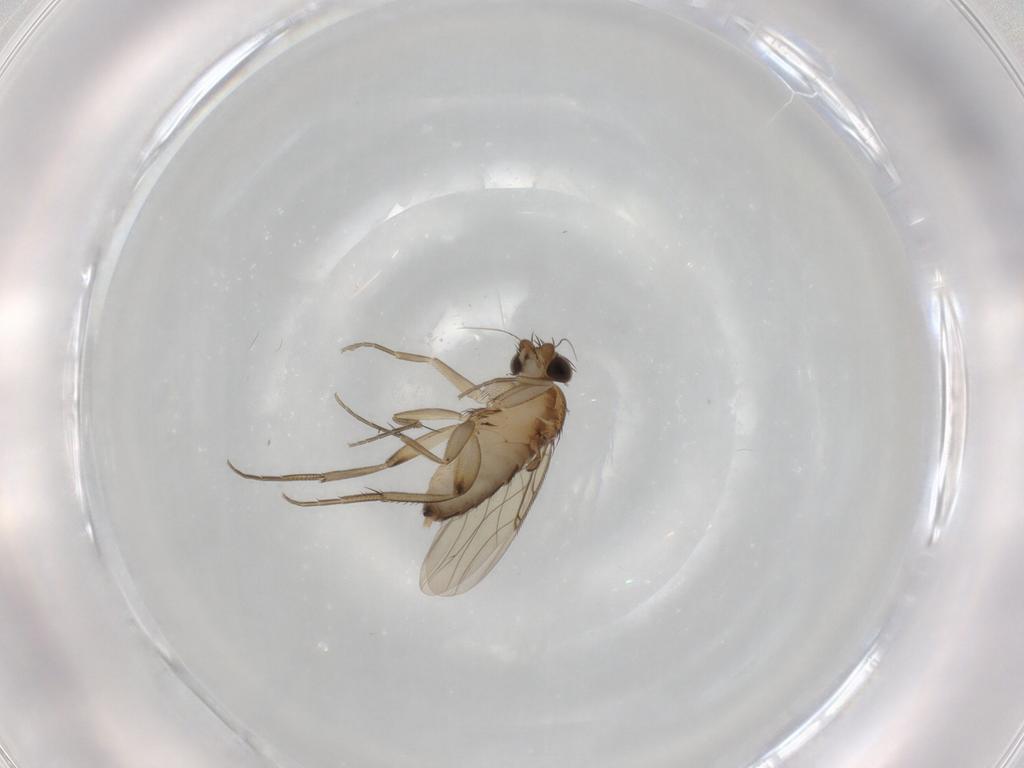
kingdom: Animalia
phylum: Arthropoda
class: Insecta
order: Diptera
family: Phoridae
